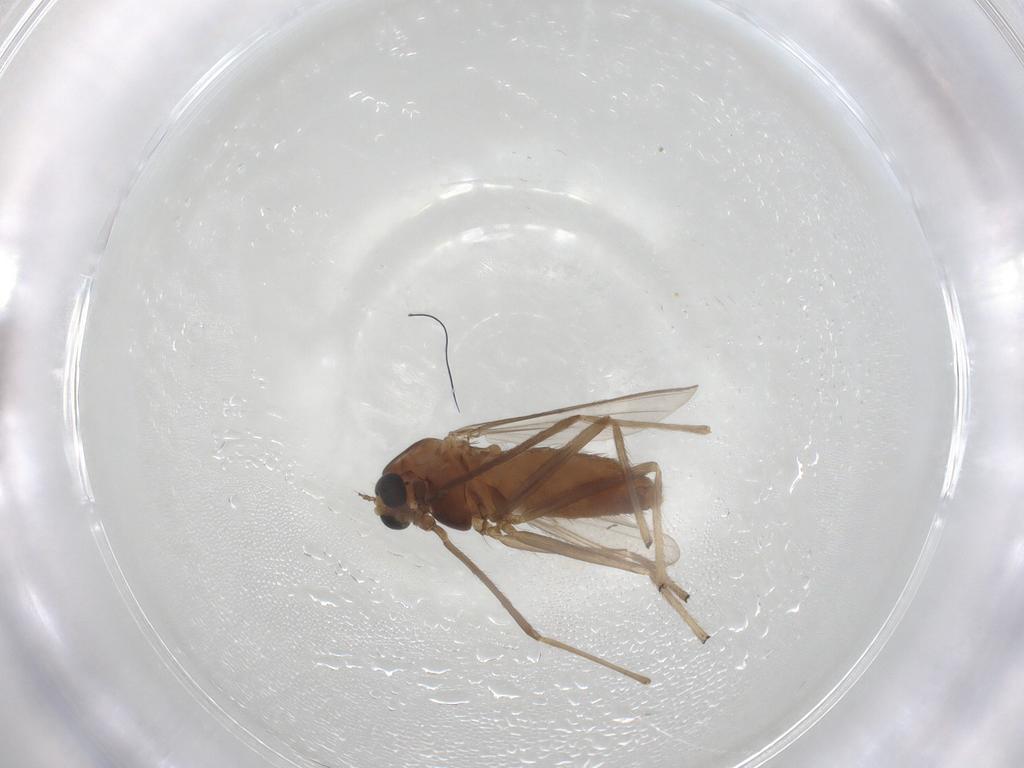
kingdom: Animalia
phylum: Arthropoda
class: Insecta
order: Diptera
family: Chironomidae
